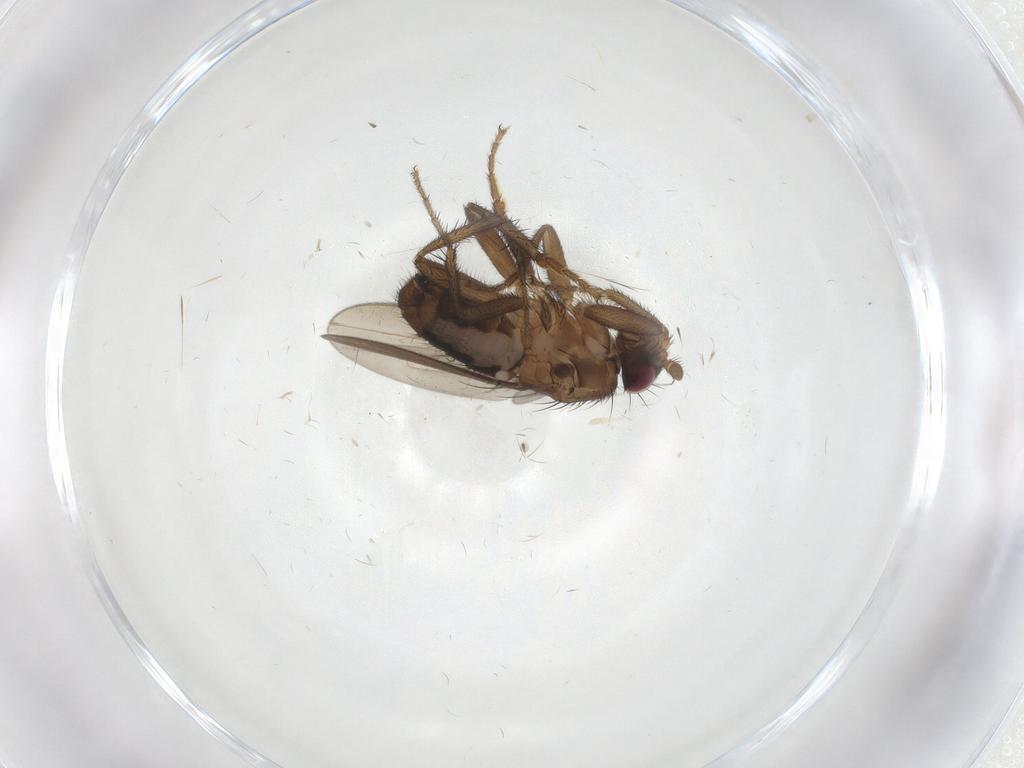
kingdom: Animalia
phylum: Arthropoda
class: Insecta
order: Diptera
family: Sphaeroceridae
